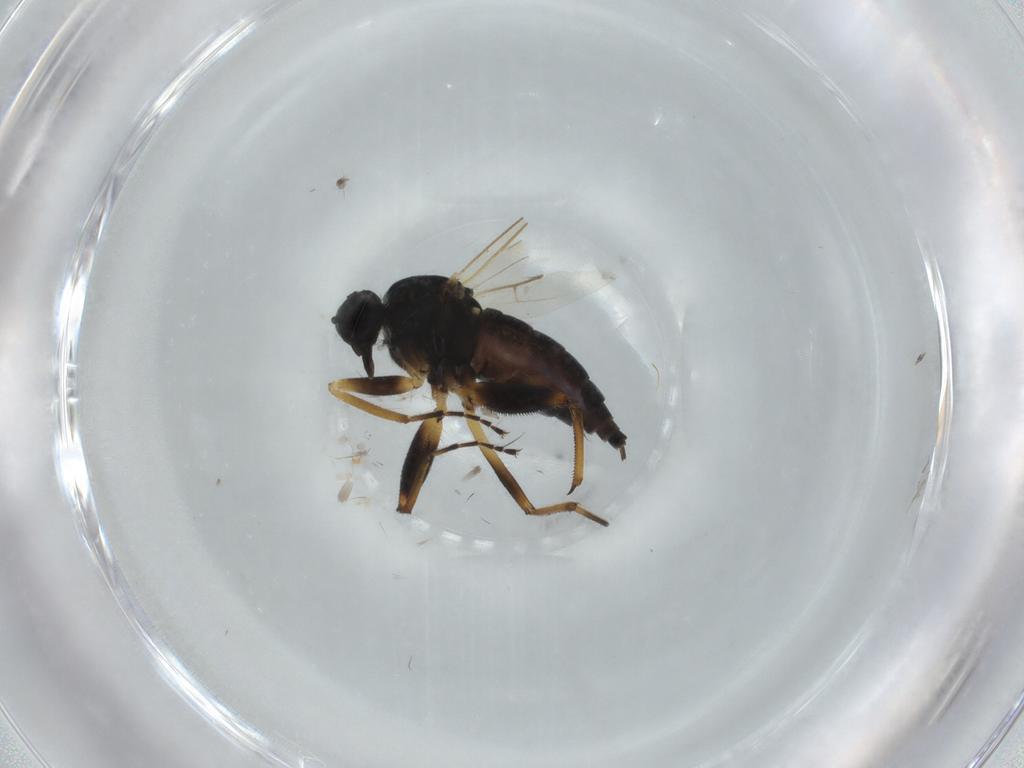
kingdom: Animalia
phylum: Arthropoda
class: Insecta
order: Diptera
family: Hybotidae
